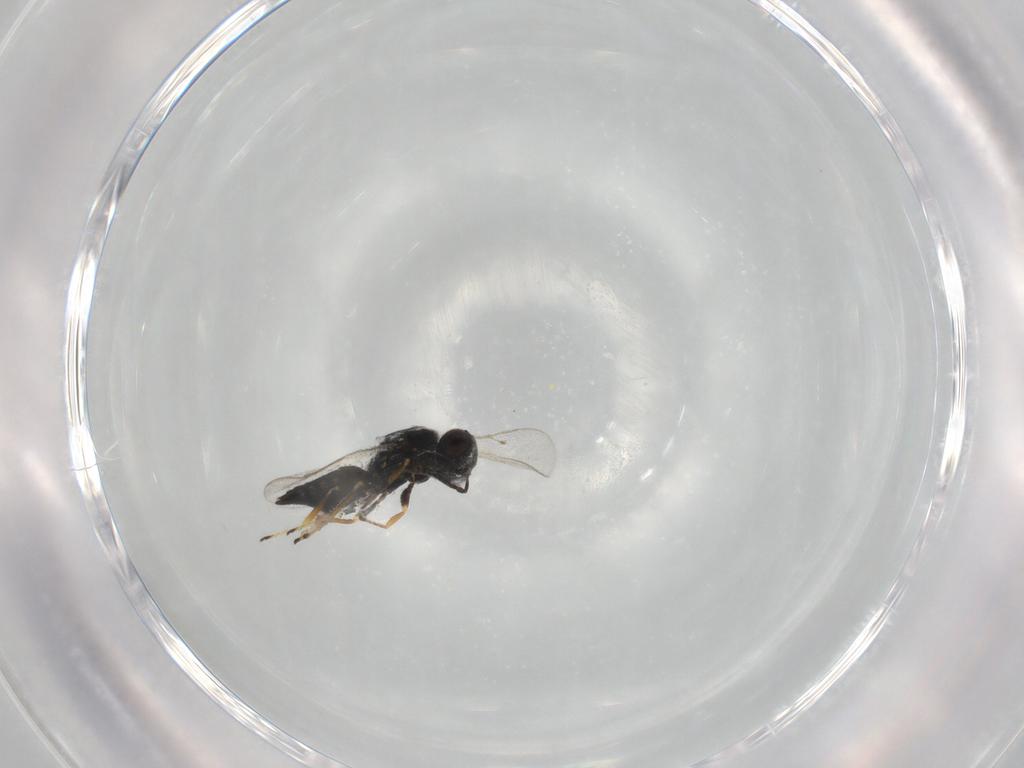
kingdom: Animalia
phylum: Arthropoda
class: Insecta
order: Hymenoptera
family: Pteromalidae
